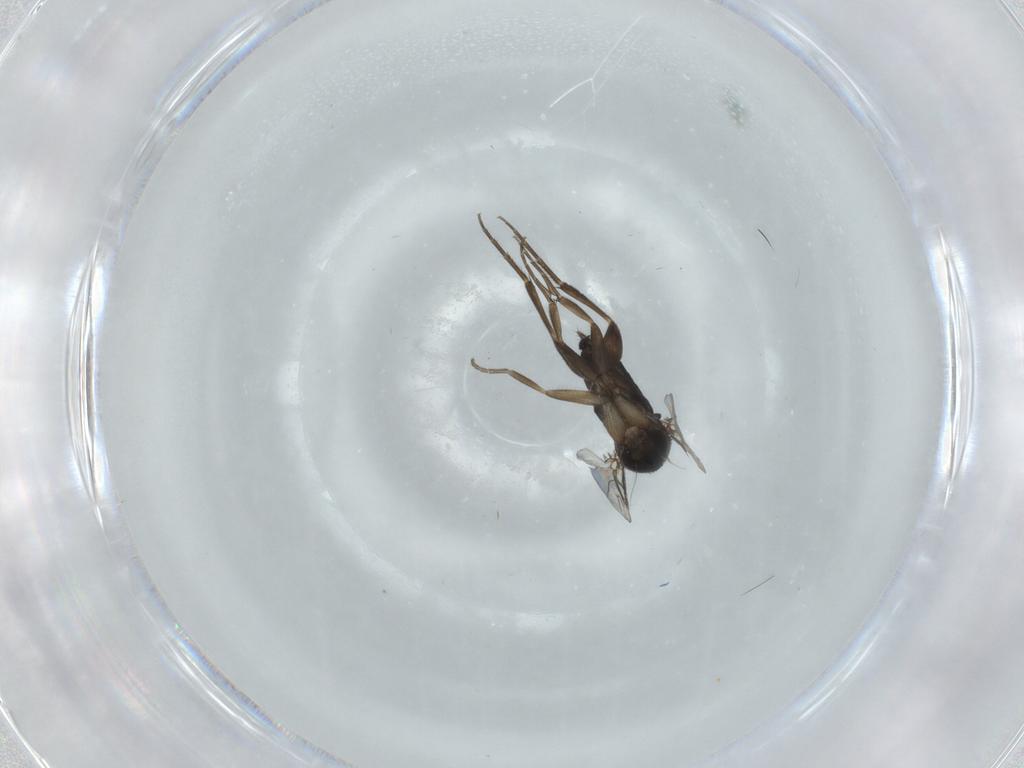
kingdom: Animalia
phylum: Arthropoda
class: Insecta
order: Diptera
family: Phoridae
